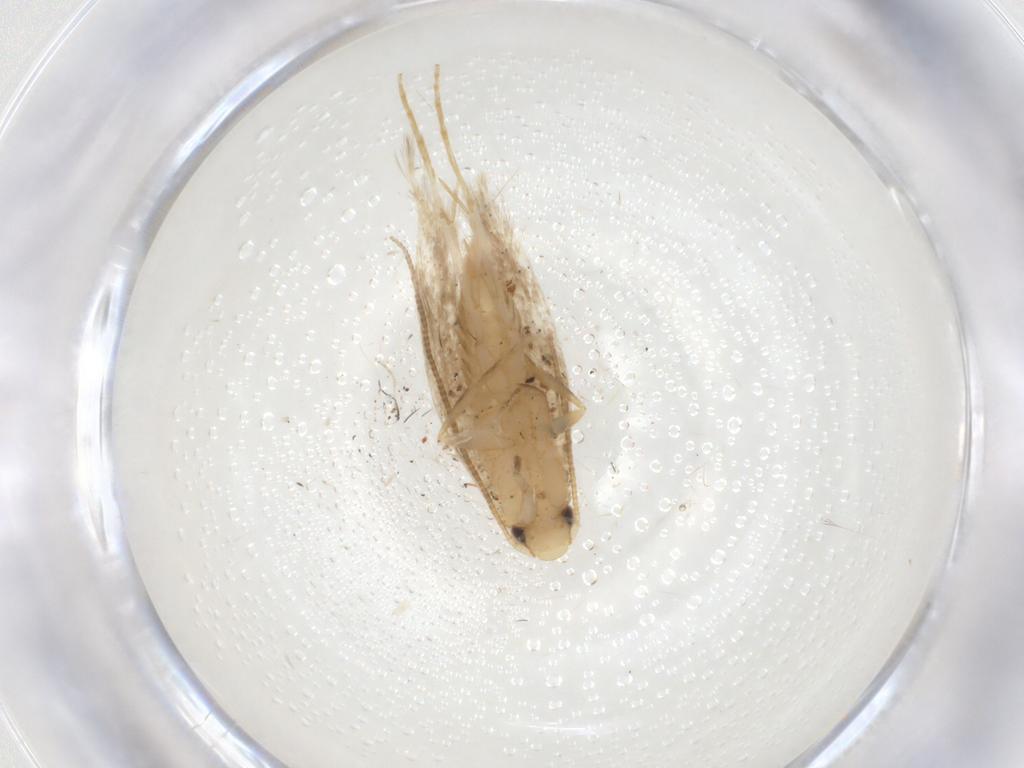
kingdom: Animalia
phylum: Arthropoda
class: Insecta
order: Lepidoptera
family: Tineidae
